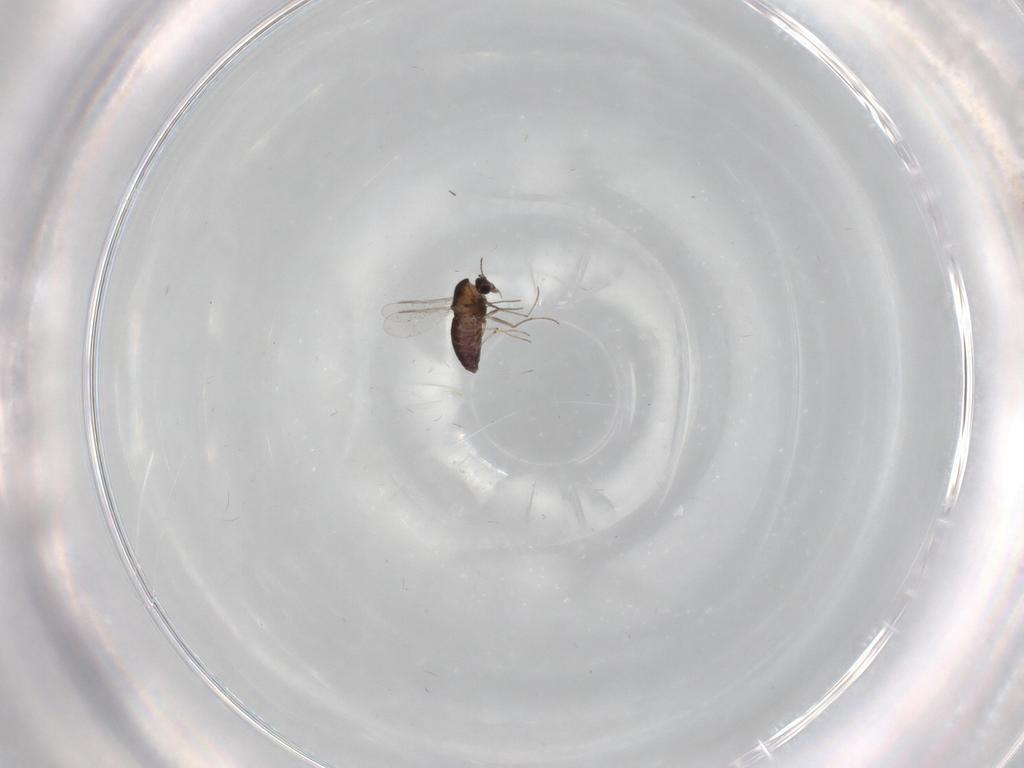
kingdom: Animalia
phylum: Arthropoda
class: Insecta
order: Diptera
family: Chironomidae
